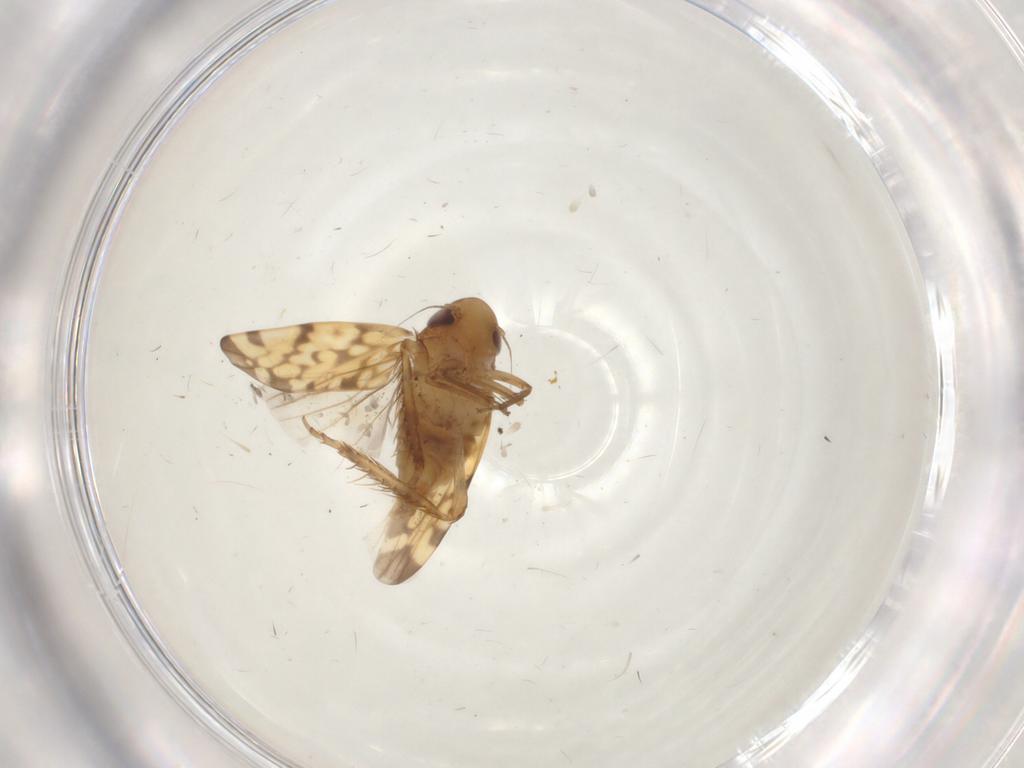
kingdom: Animalia
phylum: Arthropoda
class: Insecta
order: Hemiptera
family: Cicadellidae
